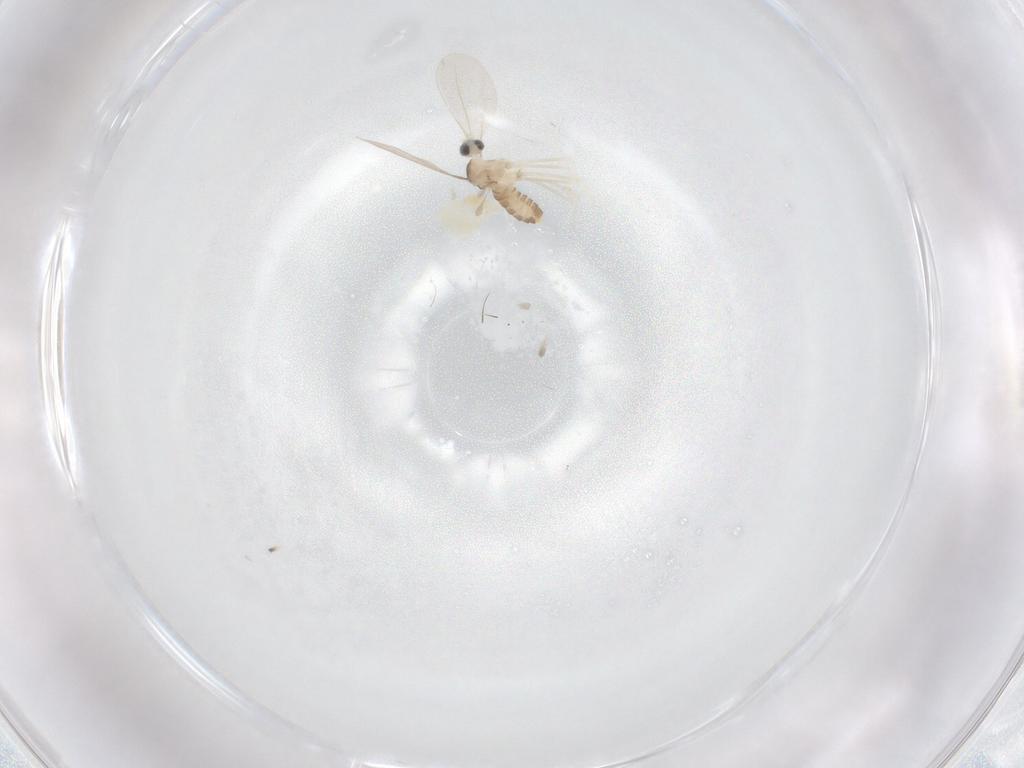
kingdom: Animalia
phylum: Arthropoda
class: Insecta
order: Diptera
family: Cecidomyiidae
